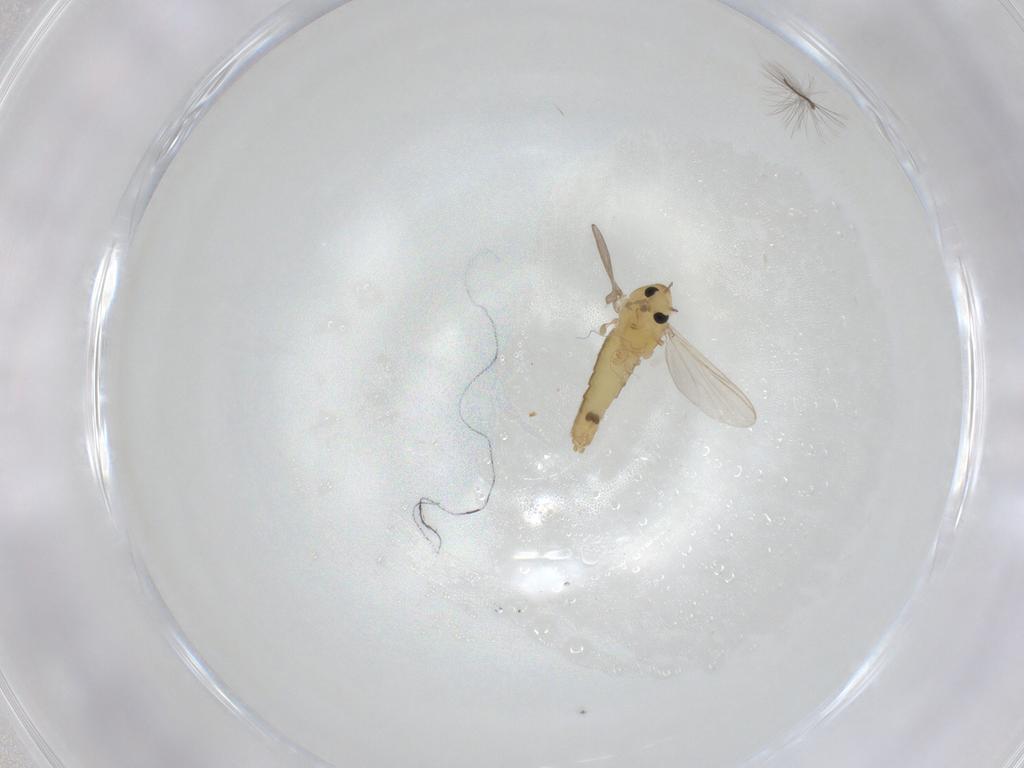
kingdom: Animalia
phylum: Arthropoda
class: Insecta
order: Diptera
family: Chironomidae
